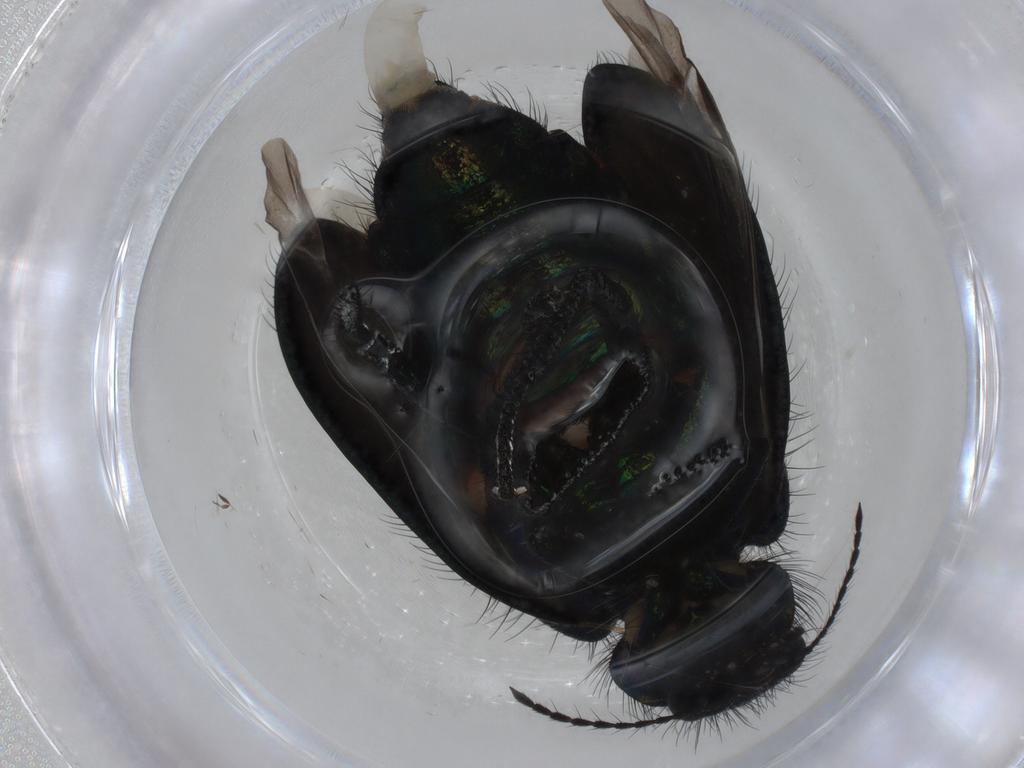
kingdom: Animalia
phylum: Arthropoda
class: Insecta
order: Coleoptera
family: Melyridae
